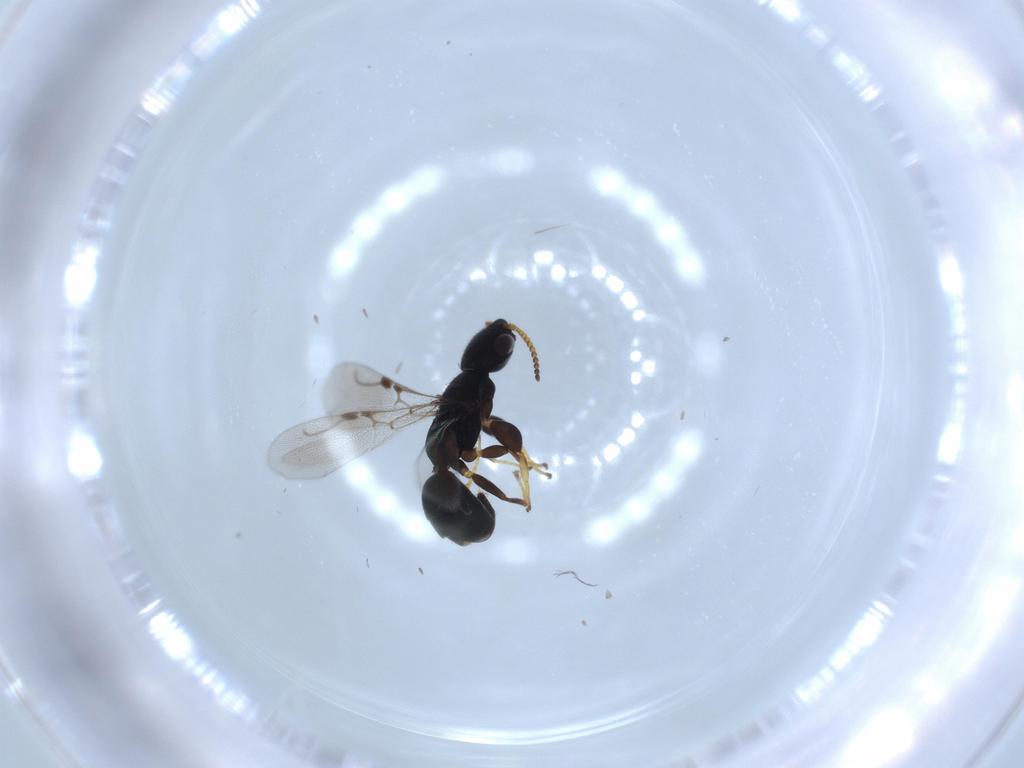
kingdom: Animalia
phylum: Arthropoda
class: Insecta
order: Hymenoptera
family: Bethylidae
